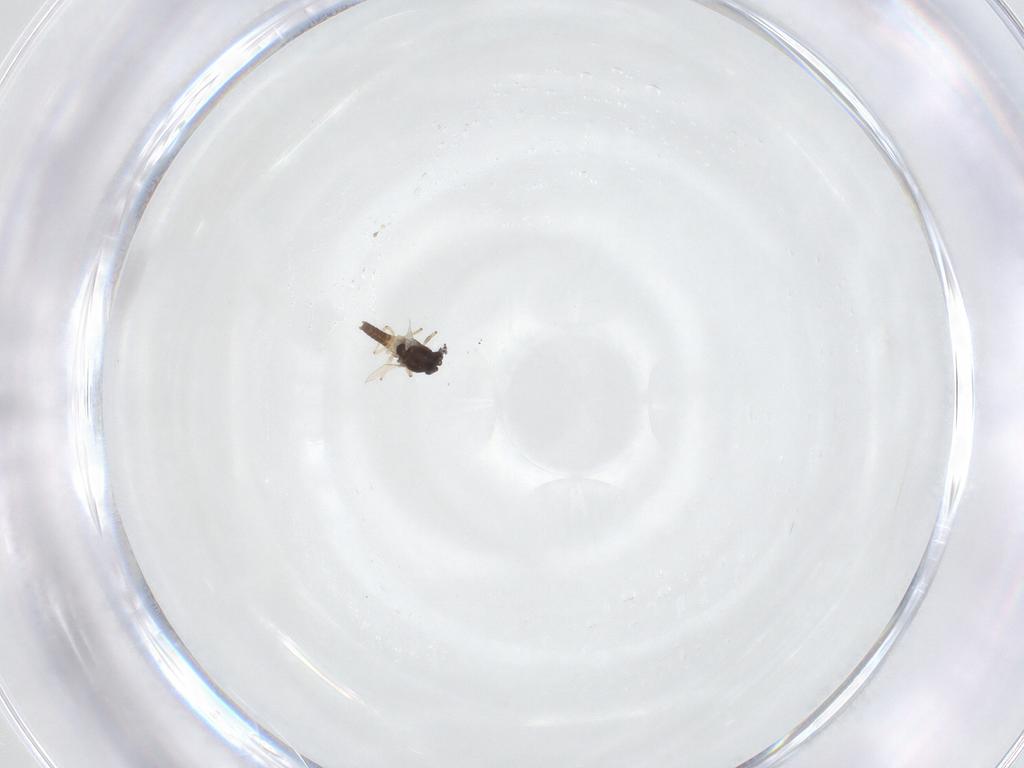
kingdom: Animalia
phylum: Arthropoda
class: Insecta
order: Diptera
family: Chironomidae
